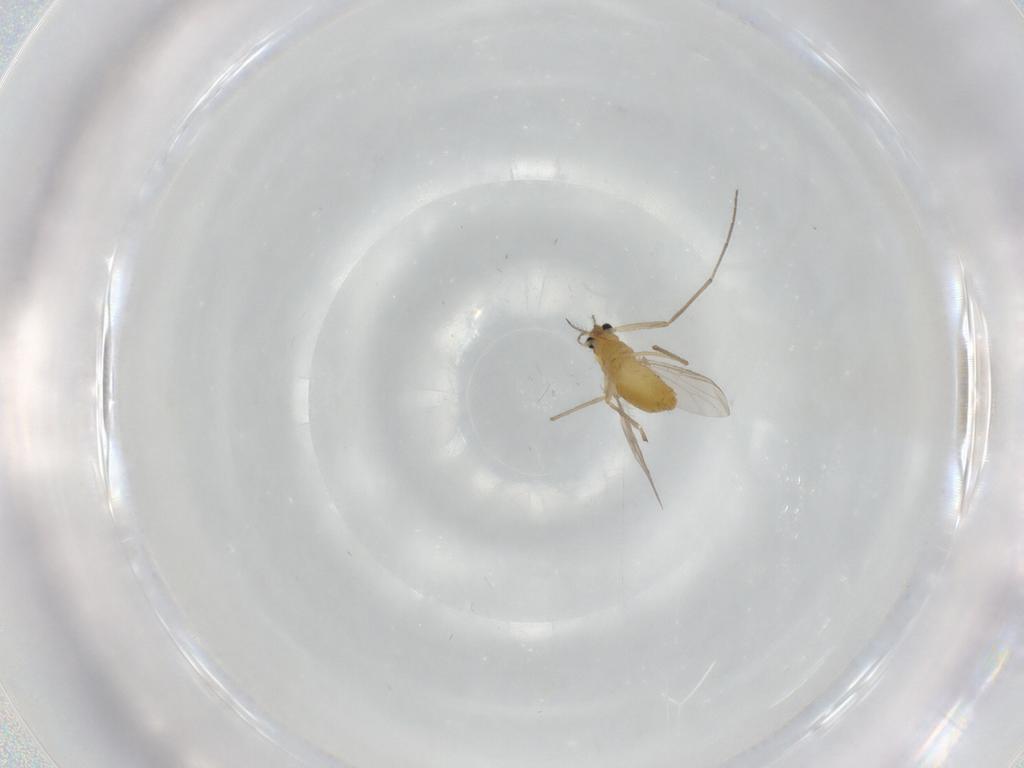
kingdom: Animalia
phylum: Arthropoda
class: Insecta
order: Diptera
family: Chironomidae
